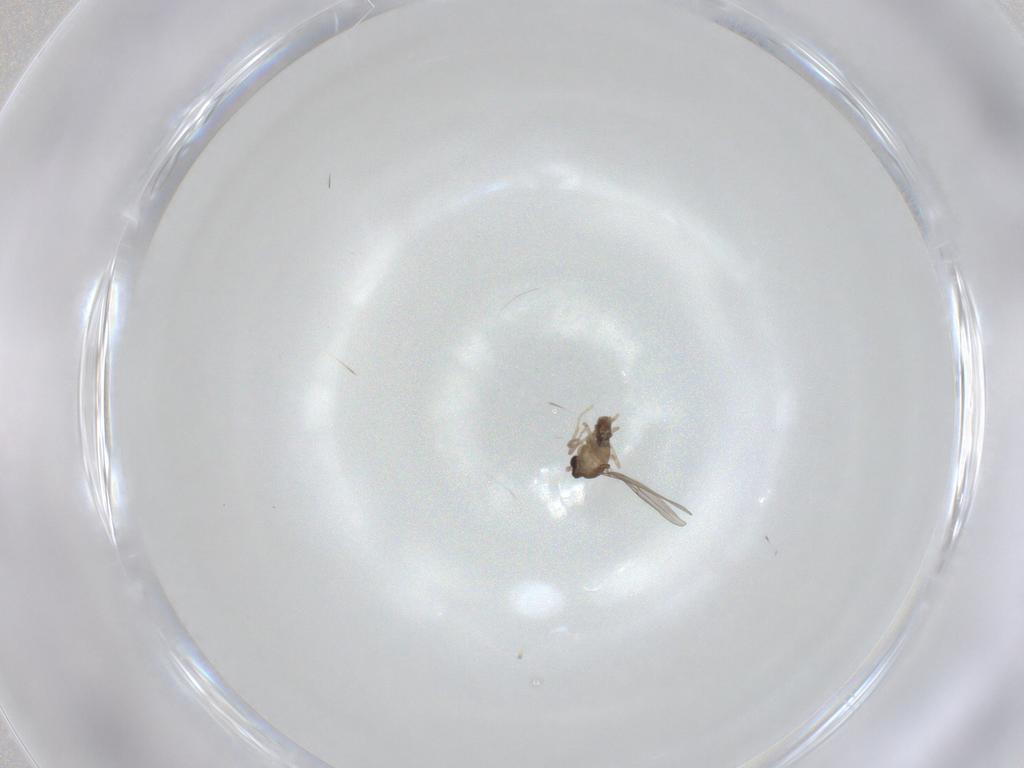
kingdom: Animalia
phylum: Arthropoda
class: Insecta
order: Diptera
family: Cecidomyiidae
